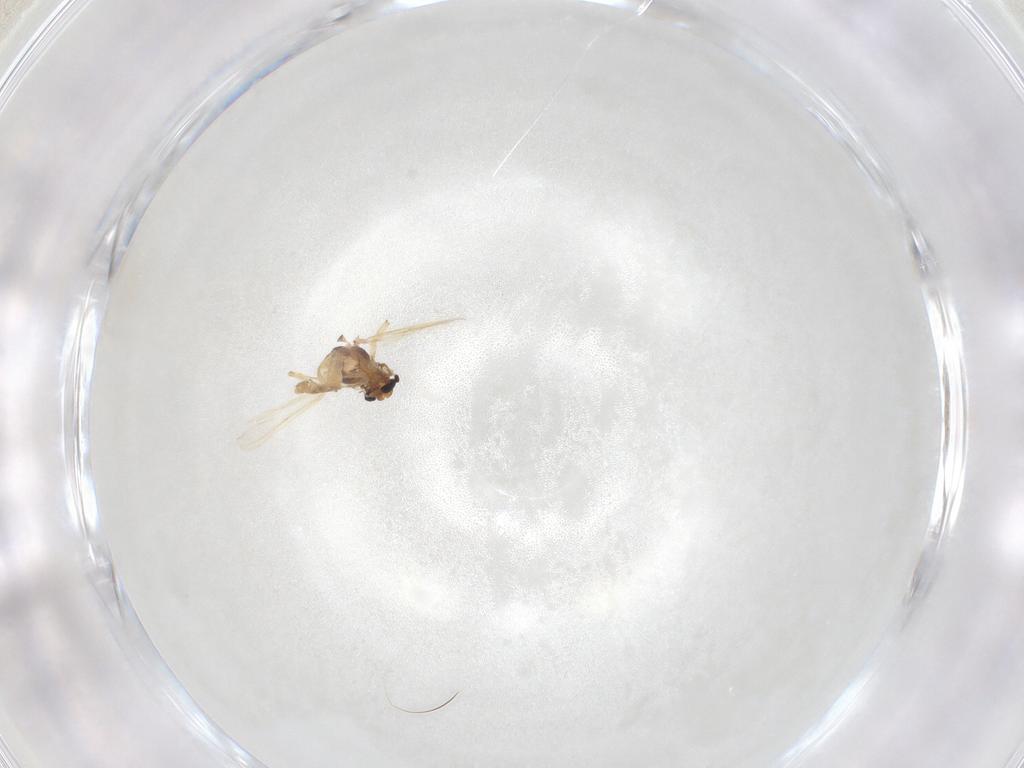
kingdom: Animalia
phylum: Arthropoda
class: Insecta
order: Diptera
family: Chironomidae
